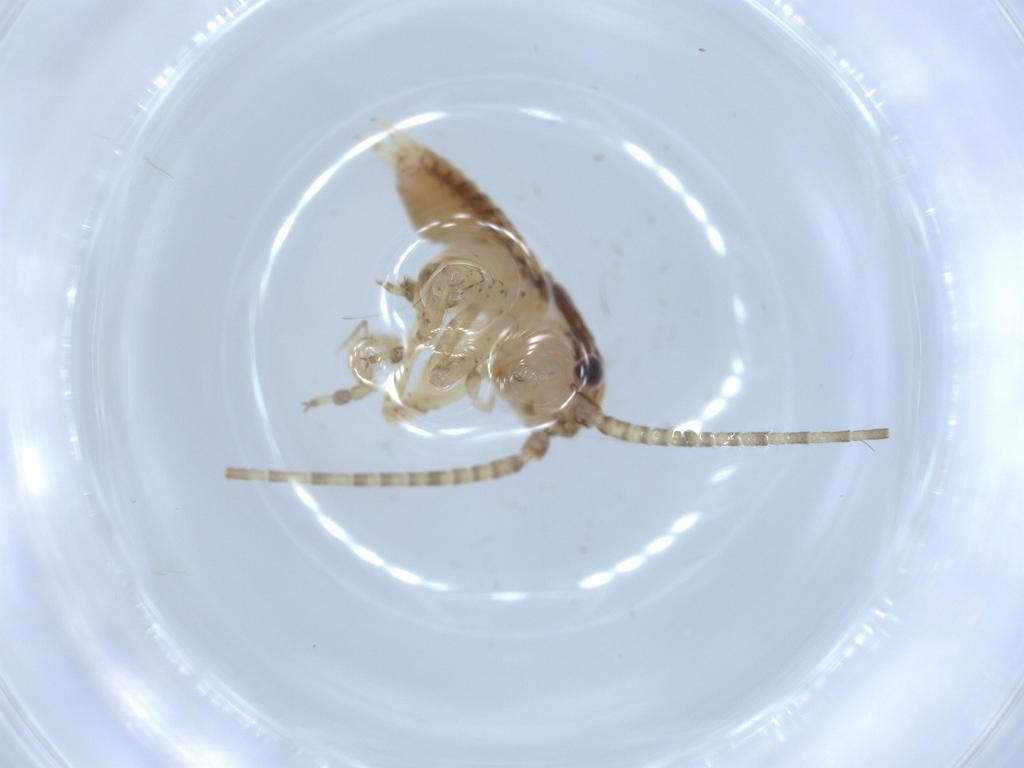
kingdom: Animalia
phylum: Arthropoda
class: Insecta
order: Orthoptera
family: Gryllidae
